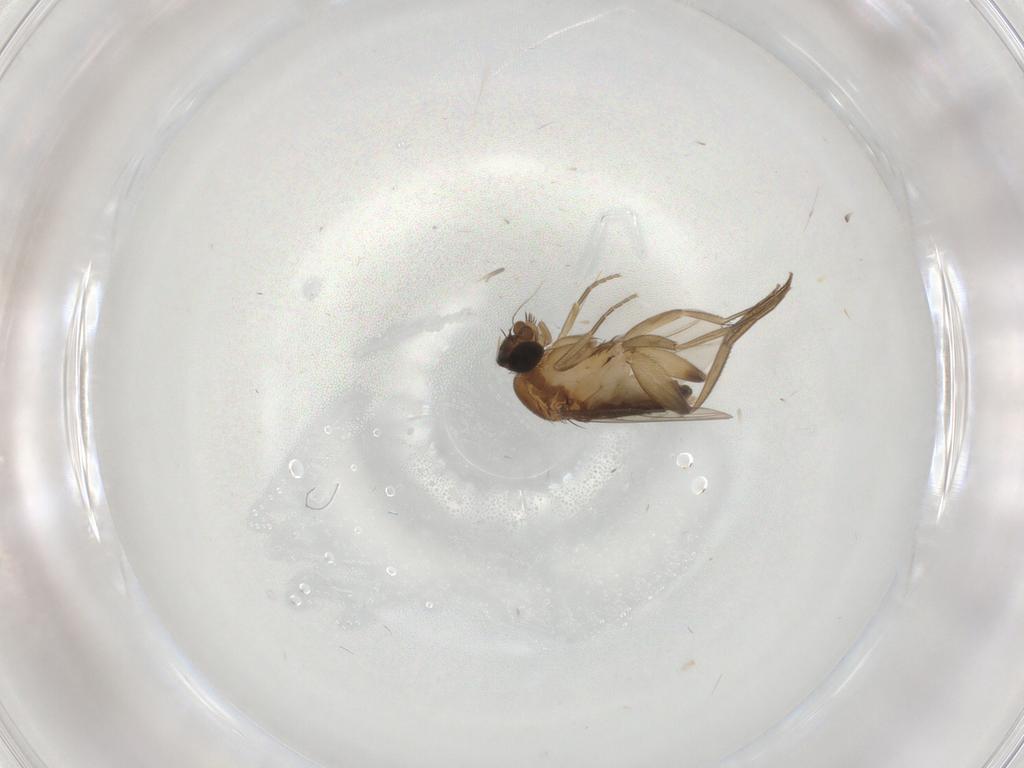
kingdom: Animalia
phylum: Arthropoda
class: Insecta
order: Diptera
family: Phoridae
